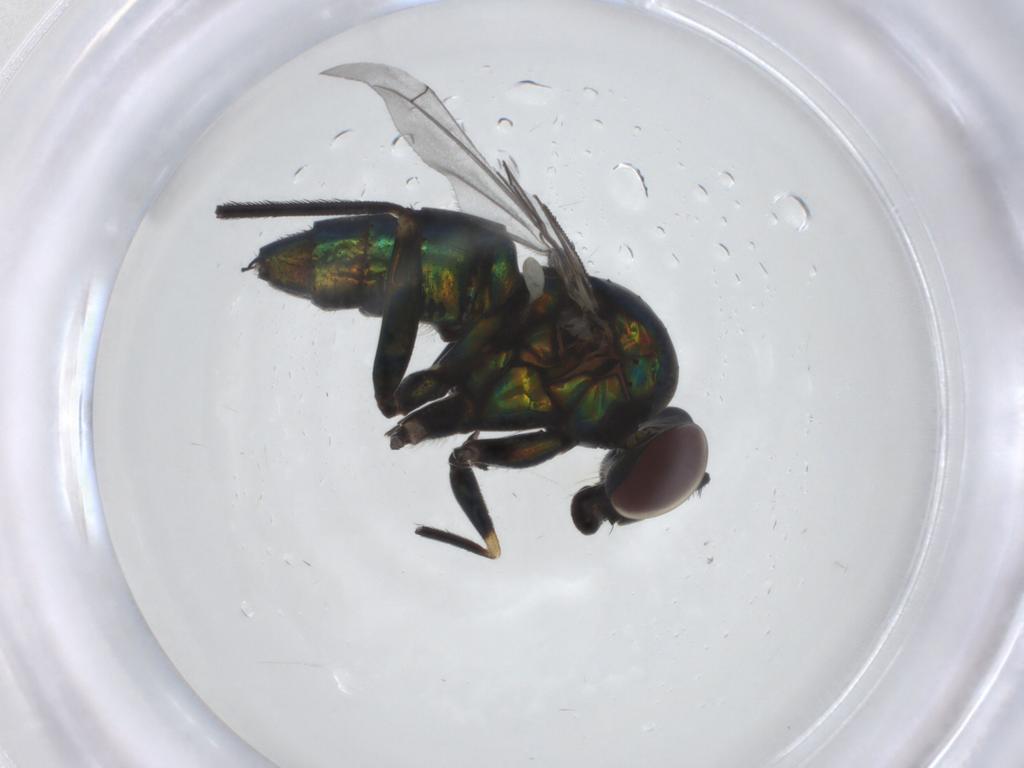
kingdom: Animalia
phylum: Arthropoda
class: Insecta
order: Diptera
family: Dolichopodidae
